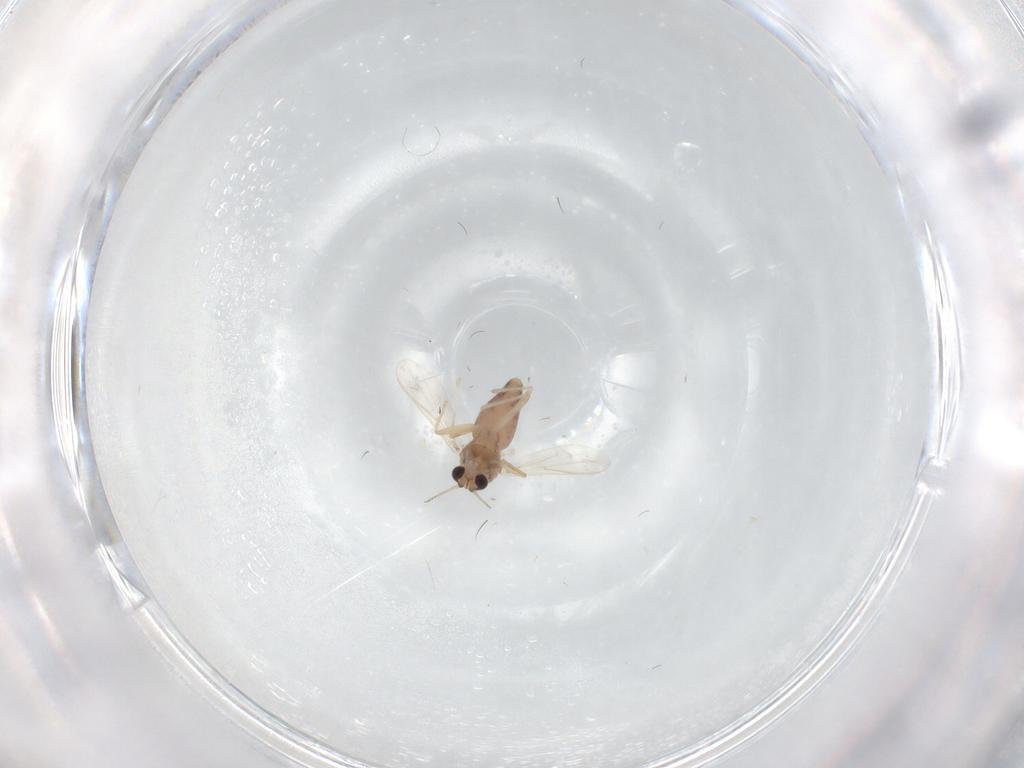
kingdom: Animalia
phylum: Arthropoda
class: Insecta
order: Diptera
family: Chironomidae
